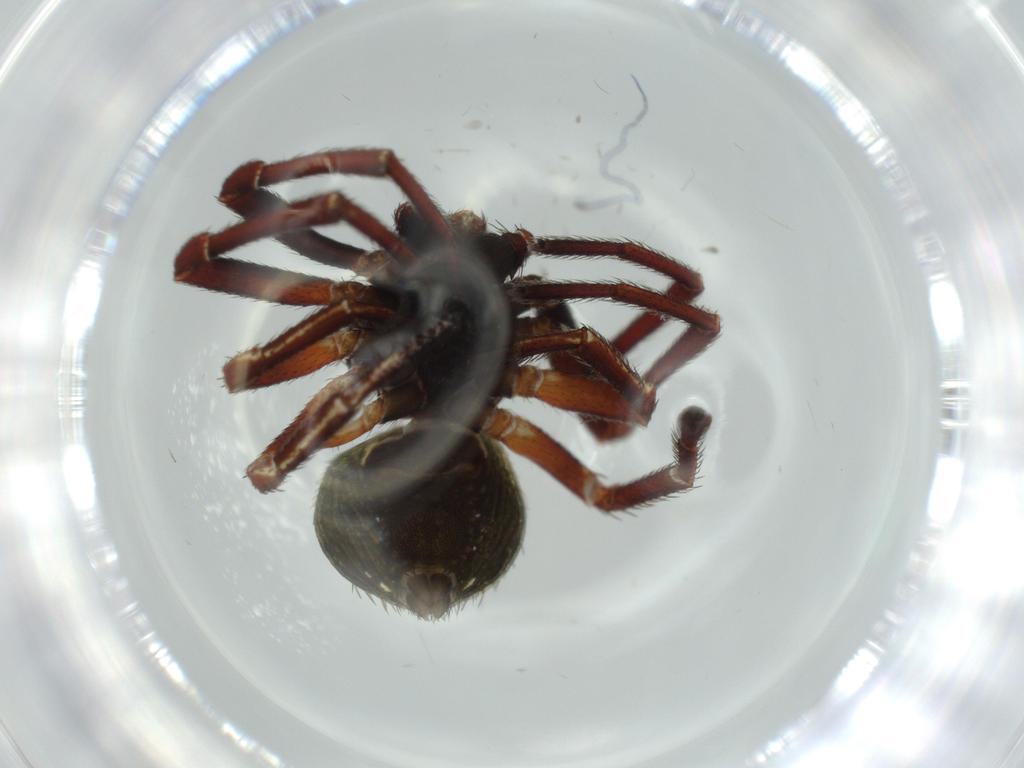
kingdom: Animalia
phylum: Arthropoda
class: Arachnida
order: Araneae
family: Thomisidae
